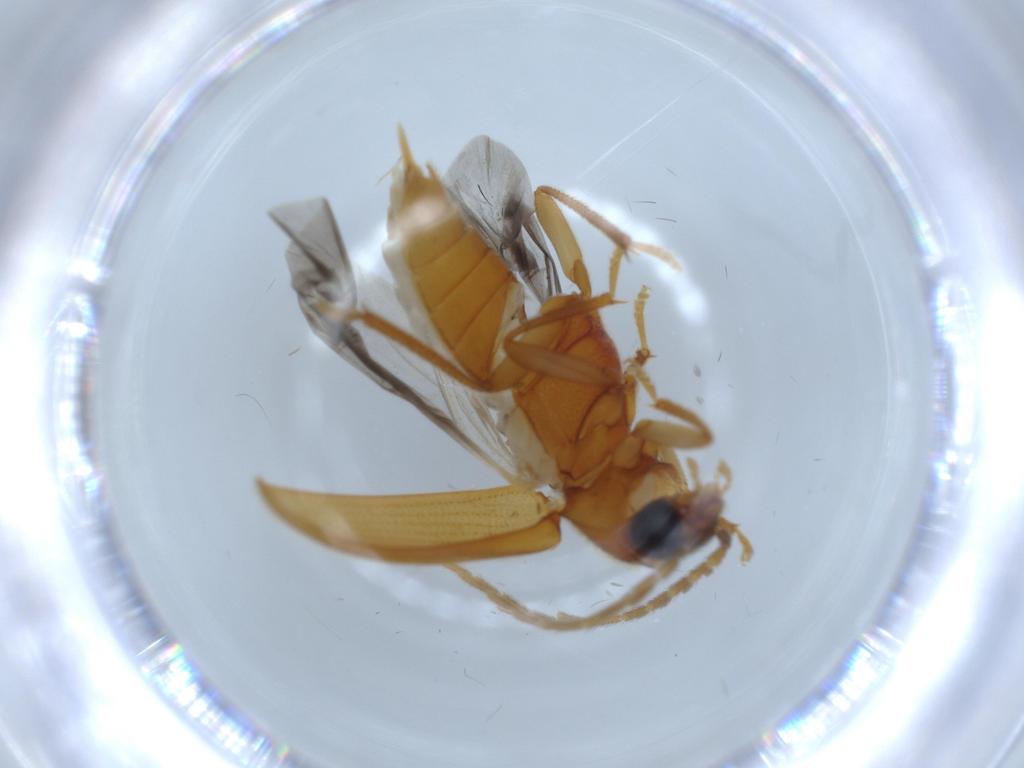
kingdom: Animalia
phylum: Arthropoda
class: Insecta
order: Coleoptera
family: Ptilodactylidae
